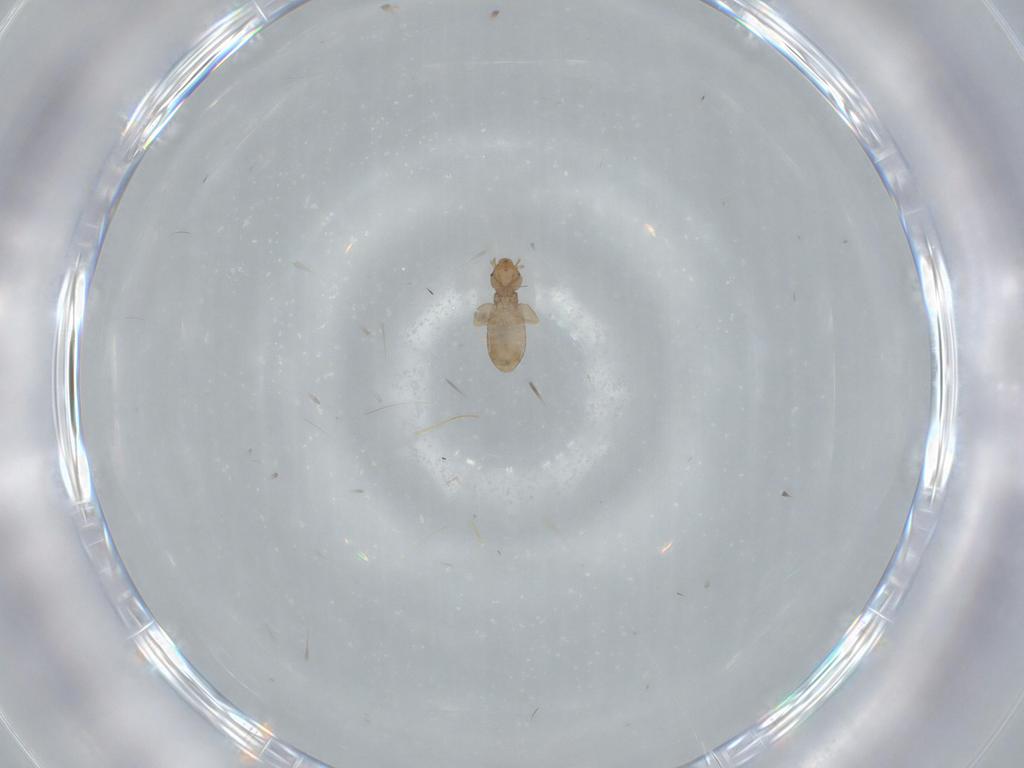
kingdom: Animalia
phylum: Arthropoda
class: Insecta
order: Psocodea
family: Liposcelididae
